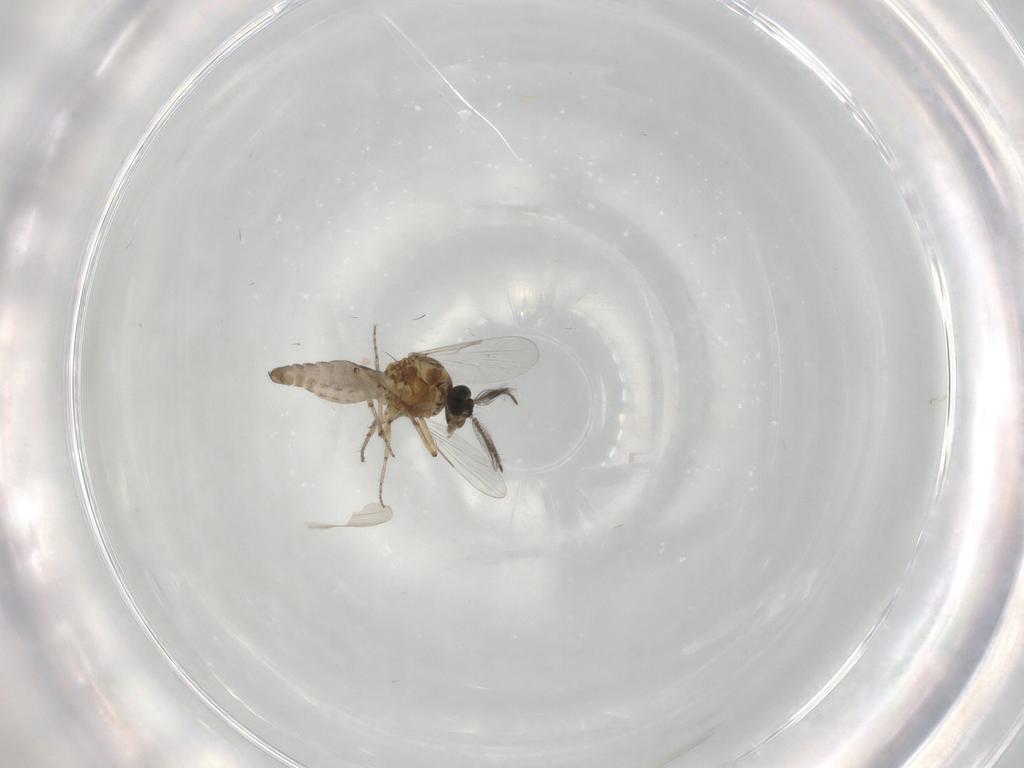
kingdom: Animalia
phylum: Arthropoda
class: Insecta
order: Diptera
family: Ceratopogonidae
